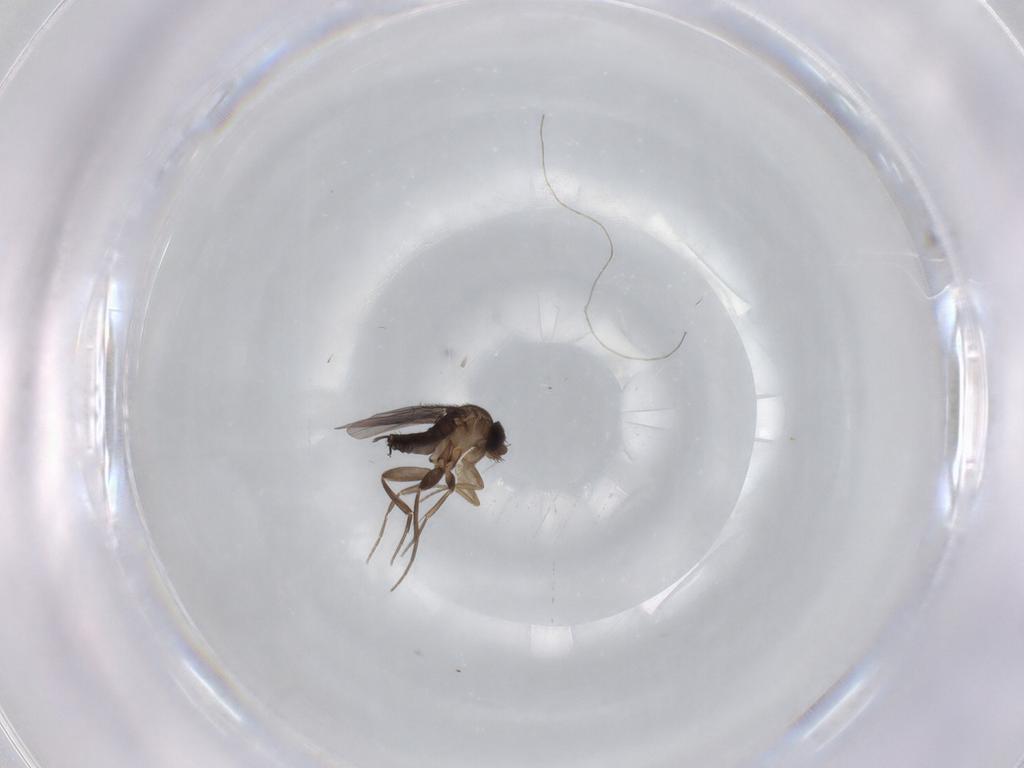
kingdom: Animalia
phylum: Arthropoda
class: Insecta
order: Diptera
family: Phoridae
